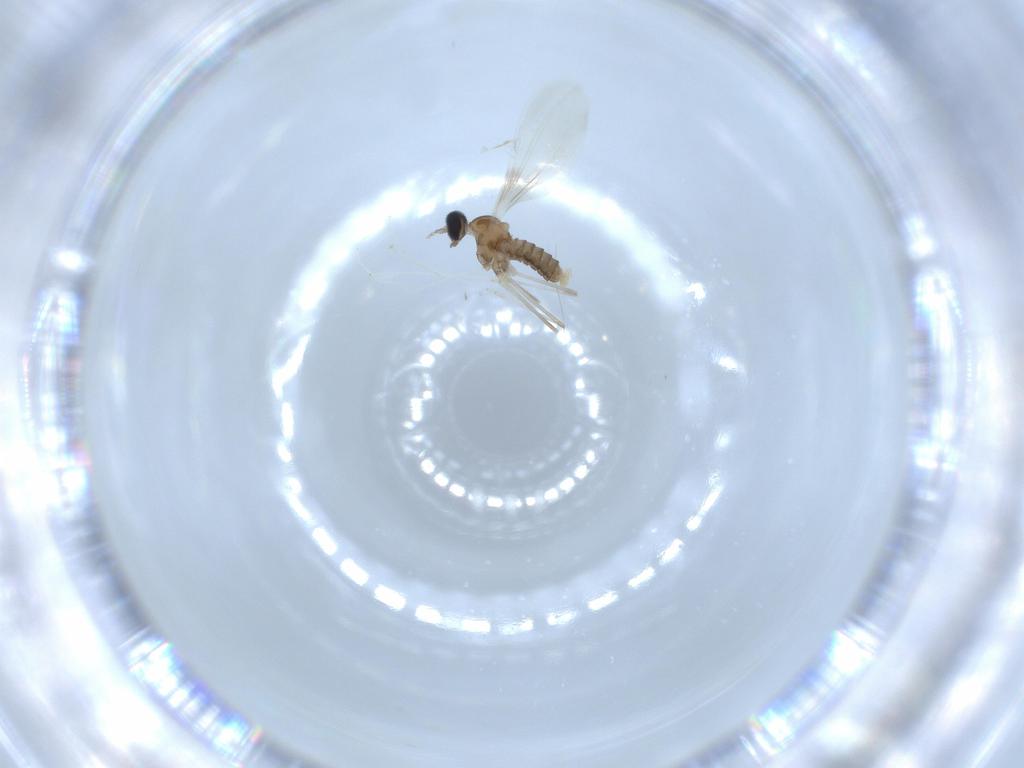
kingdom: Animalia
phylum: Arthropoda
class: Insecta
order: Diptera
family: Cecidomyiidae
